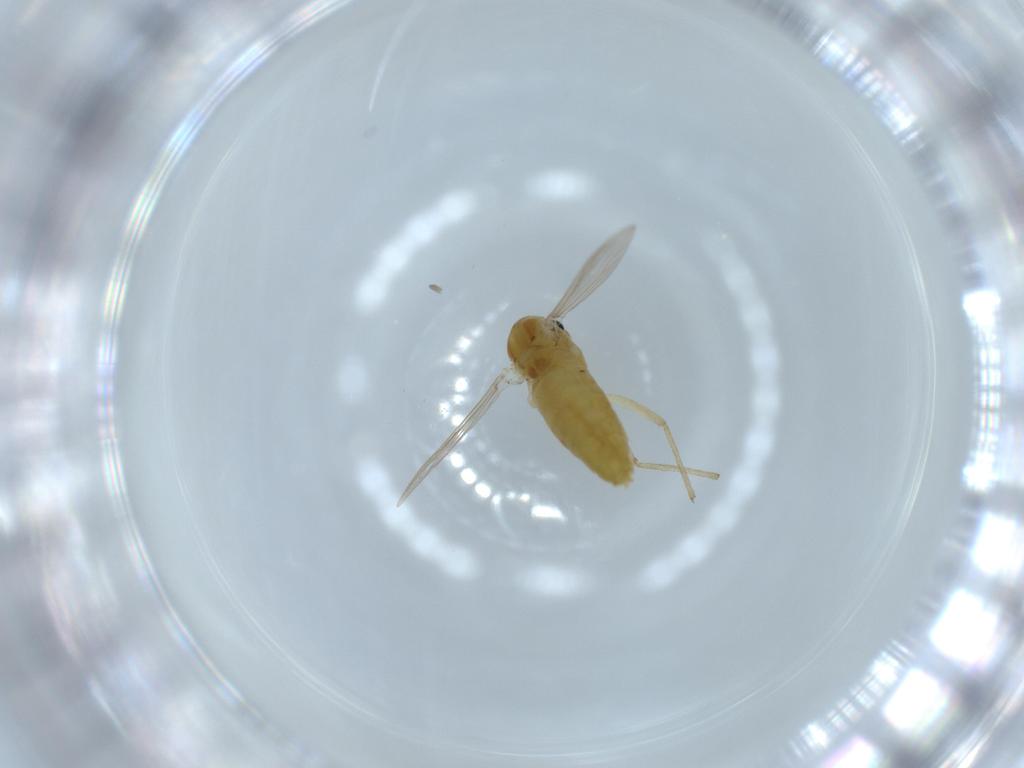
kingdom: Animalia
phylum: Arthropoda
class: Insecta
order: Diptera
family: Chironomidae
